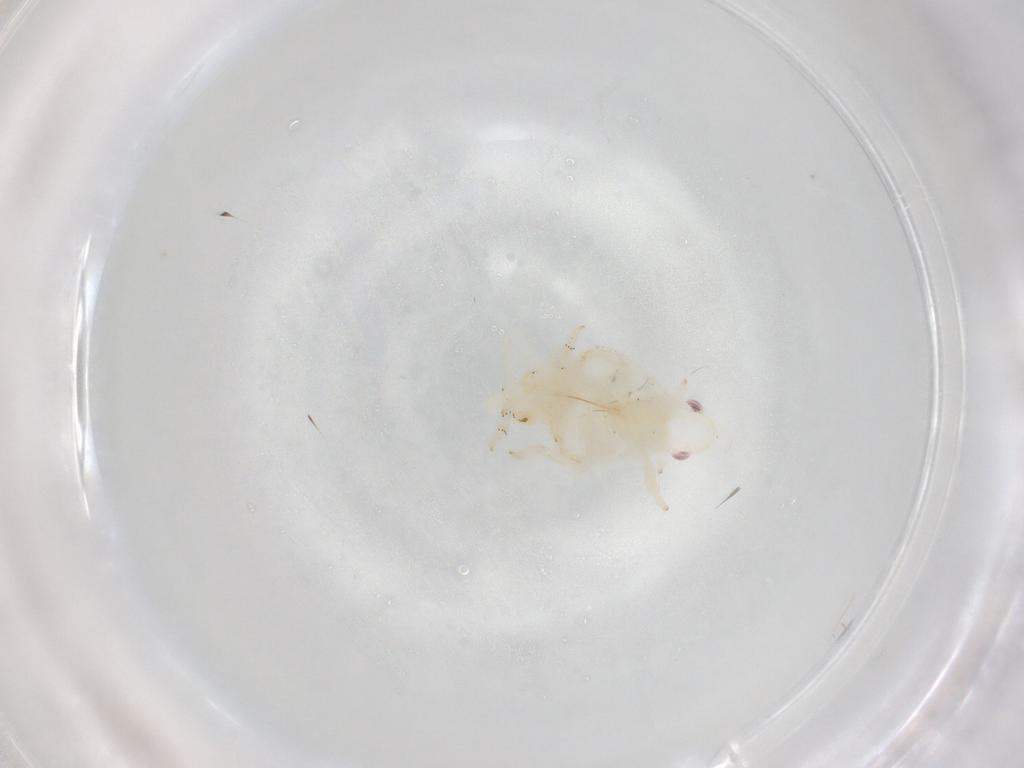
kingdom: Animalia
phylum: Arthropoda
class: Insecta
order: Hemiptera
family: Fulgoroidea_incertae_sedis
